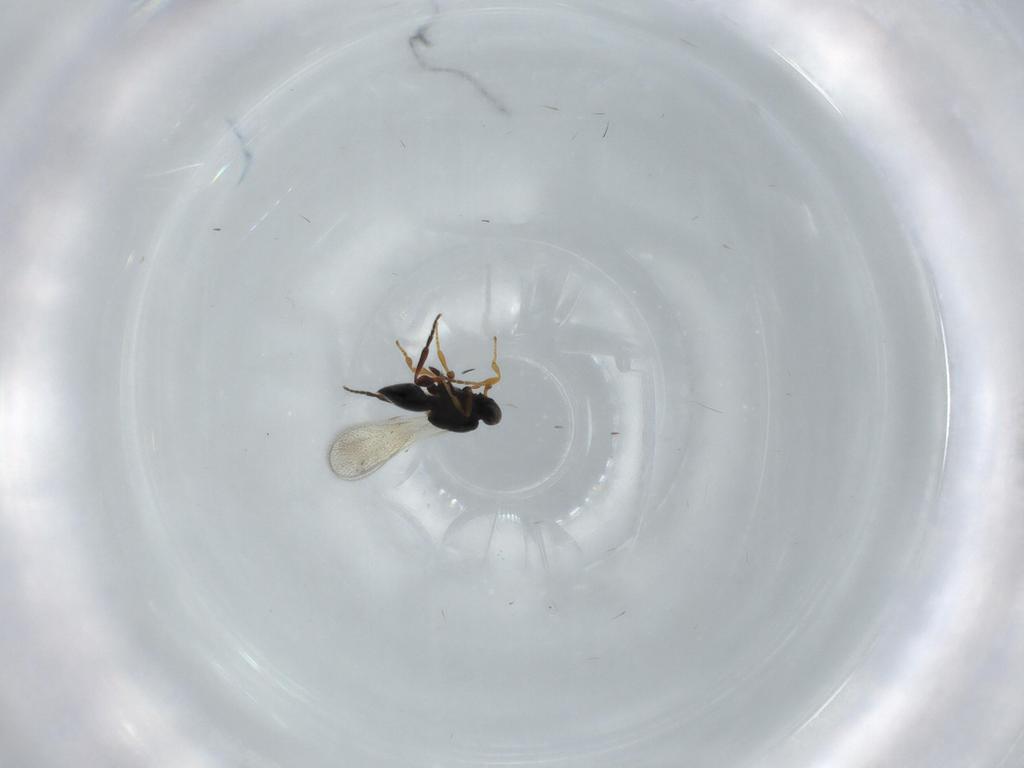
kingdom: Animalia
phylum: Arthropoda
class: Insecta
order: Hymenoptera
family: Platygastridae
